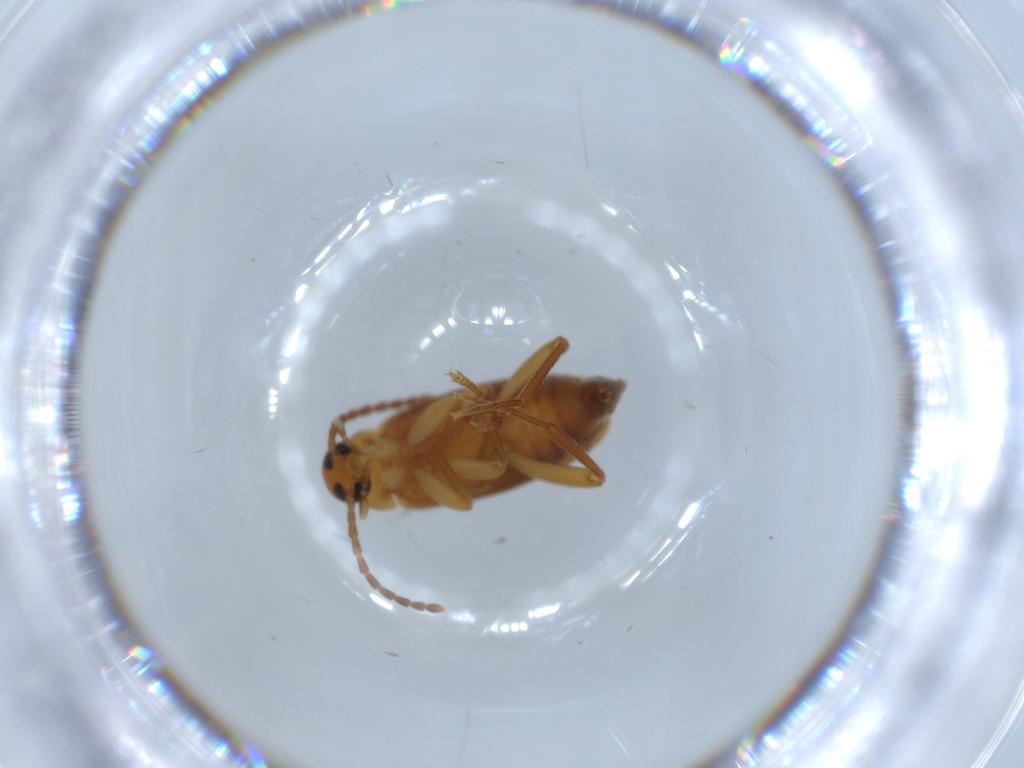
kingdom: Animalia
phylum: Arthropoda
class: Insecta
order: Coleoptera
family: Scraptiidae
